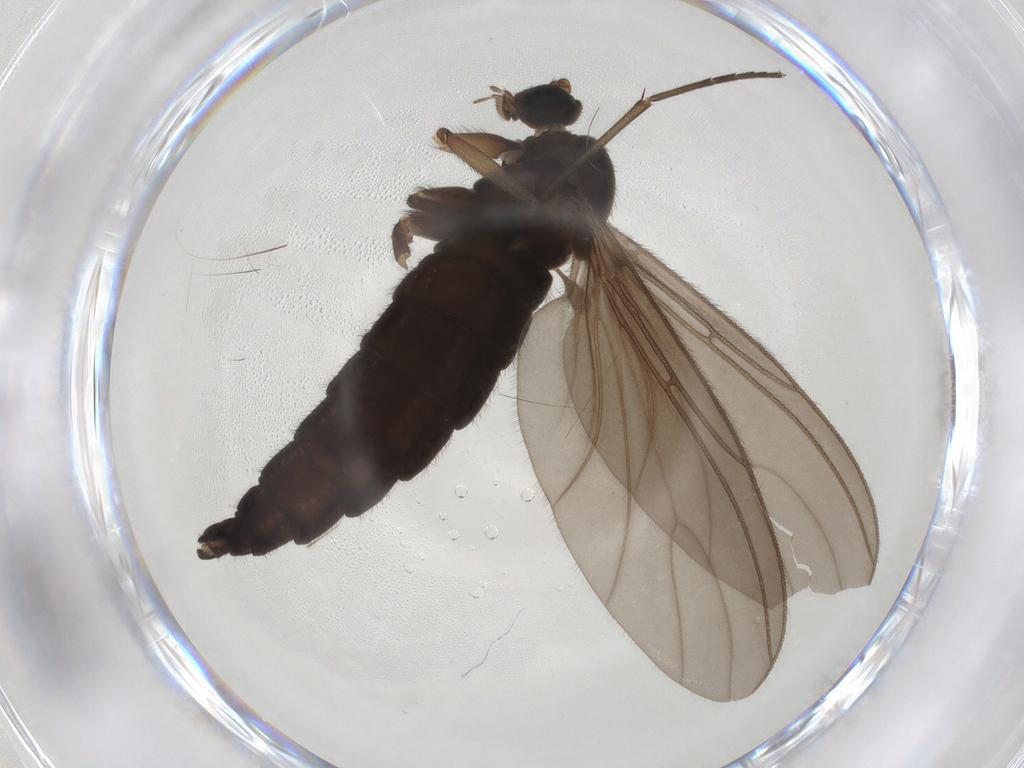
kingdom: Animalia
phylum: Arthropoda
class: Insecta
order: Diptera
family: Sciaridae
